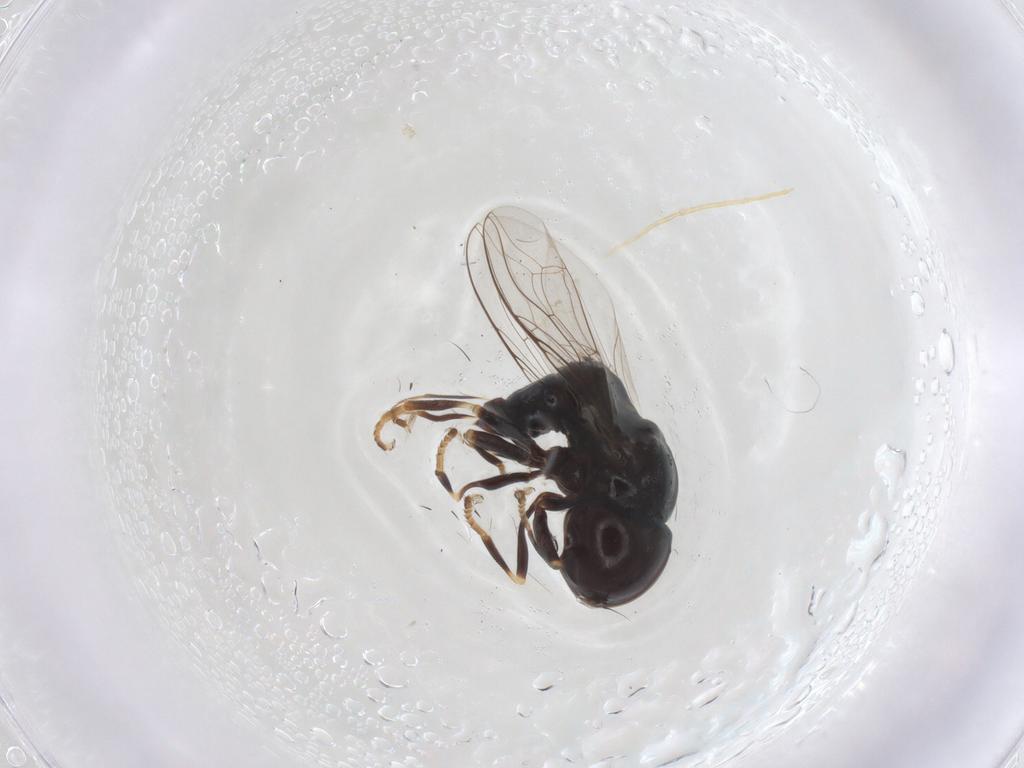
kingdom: Animalia
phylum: Arthropoda
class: Insecta
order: Diptera
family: Pipunculidae
